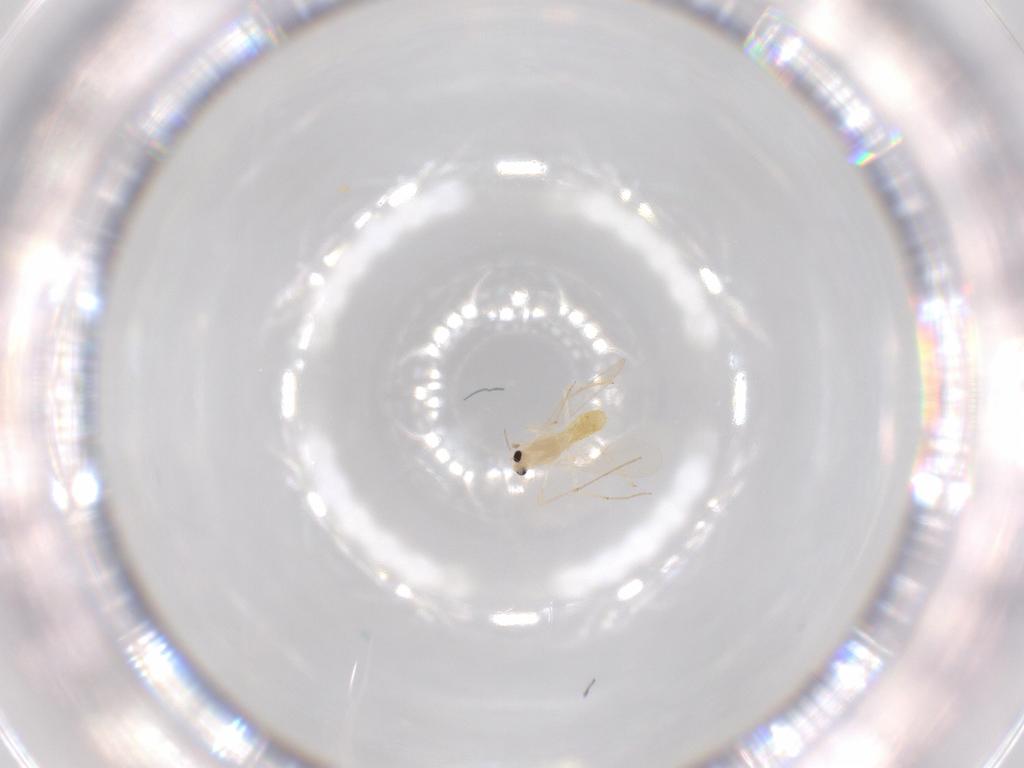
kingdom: Animalia
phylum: Arthropoda
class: Insecta
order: Diptera
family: Chironomidae
